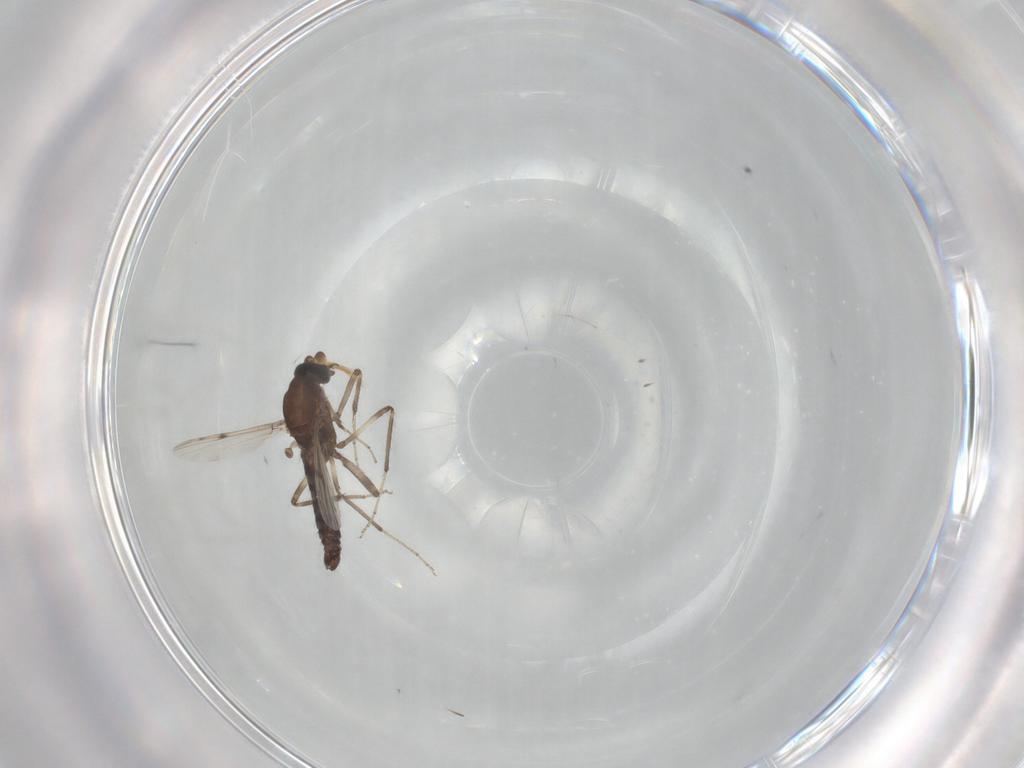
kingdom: Animalia
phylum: Arthropoda
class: Insecta
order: Diptera
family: Ceratopogonidae
